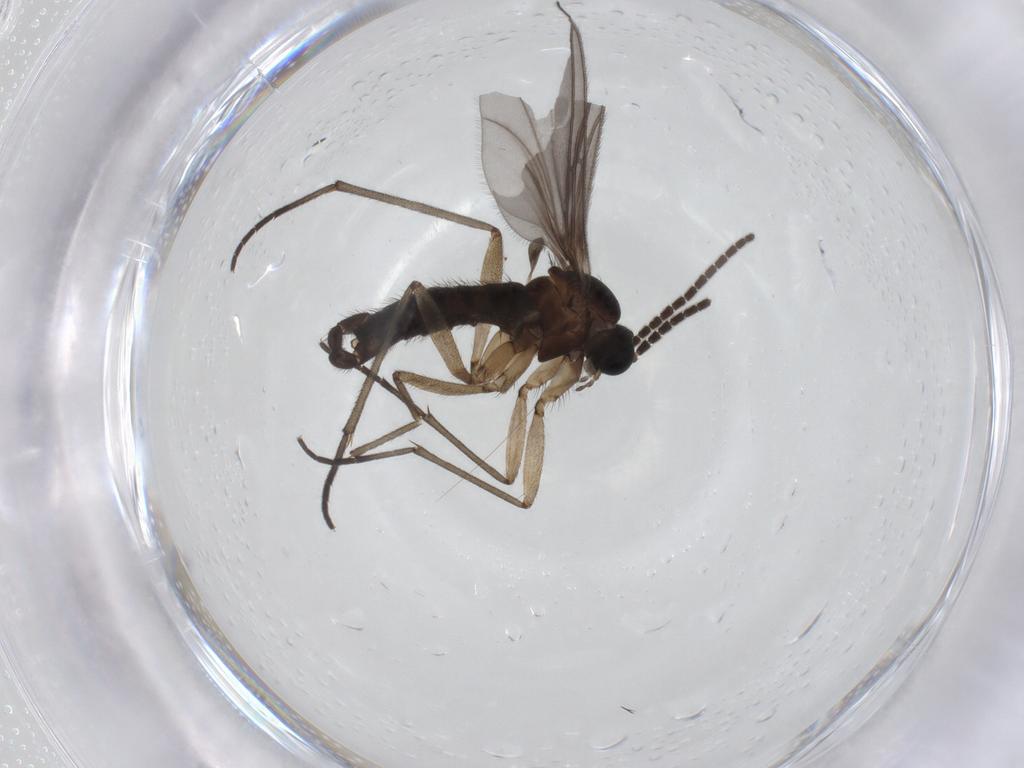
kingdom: Animalia
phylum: Arthropoda
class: Insecta
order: Diptera
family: Sciaridae
